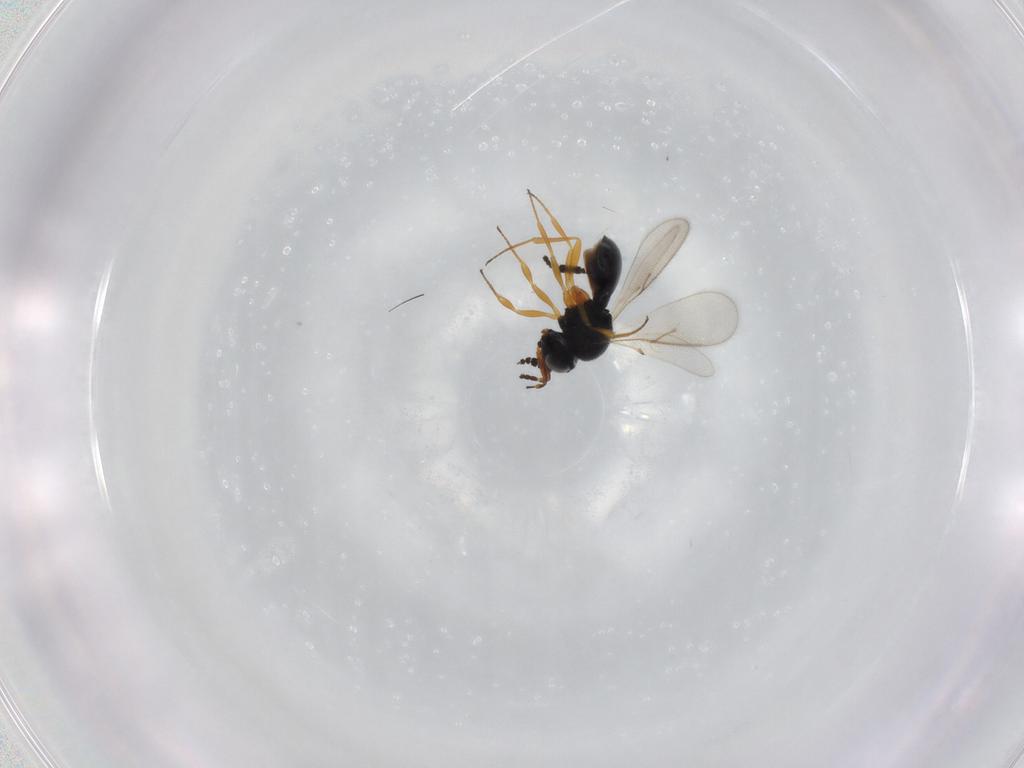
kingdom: Animalia
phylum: Arthropoda
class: Insecta
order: Hymenoptera
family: Scelionidae
